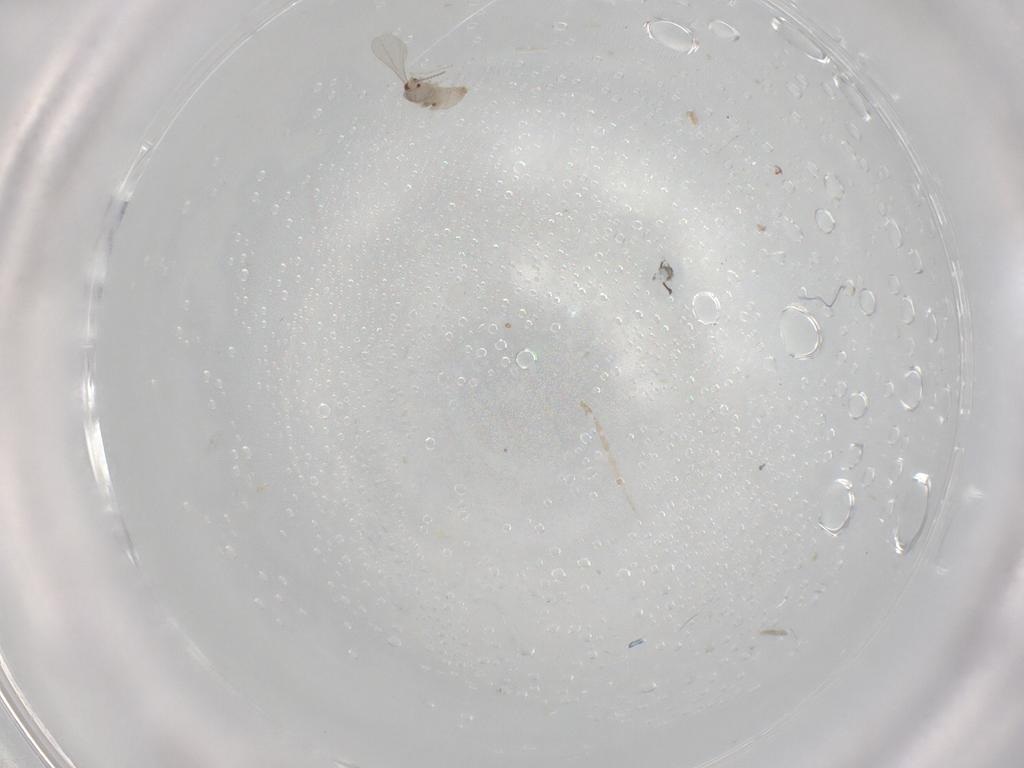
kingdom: Animalia
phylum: Arthropoda
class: Insecta
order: Diptera
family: Cecidomyiidae
